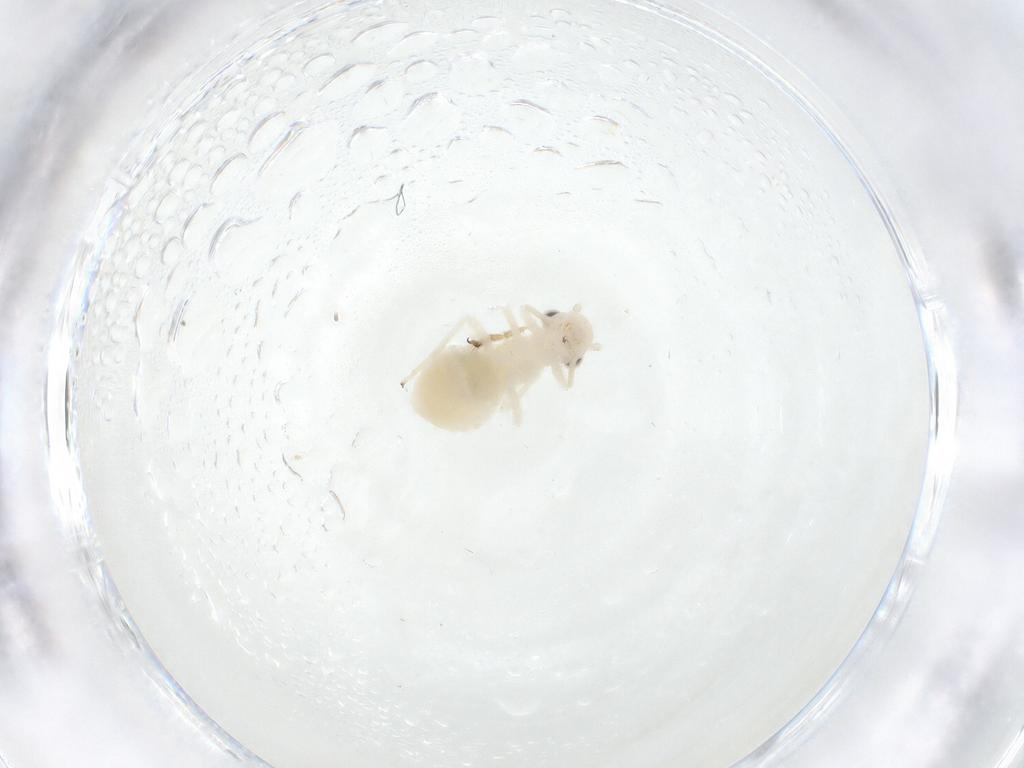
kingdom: Animalia
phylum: Arthropoda
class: Insecta
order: Psocodea
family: Caeciliusidae
